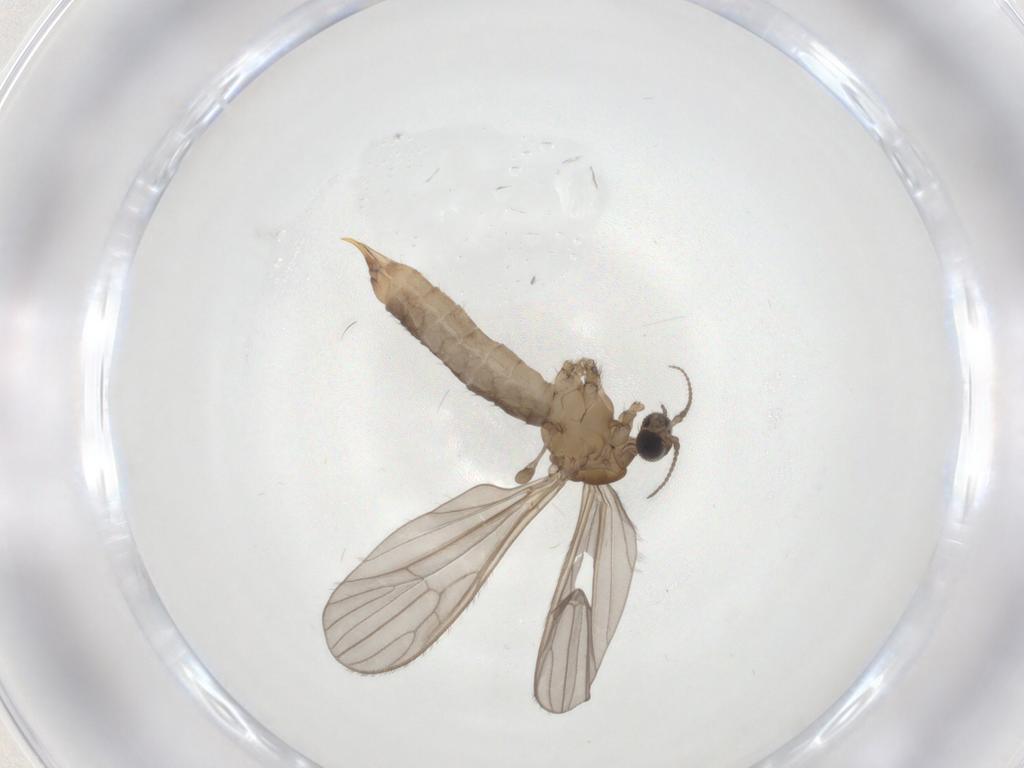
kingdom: Animalia
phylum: Arthropoda
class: Insecta
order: Diptera
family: Limoniidae
